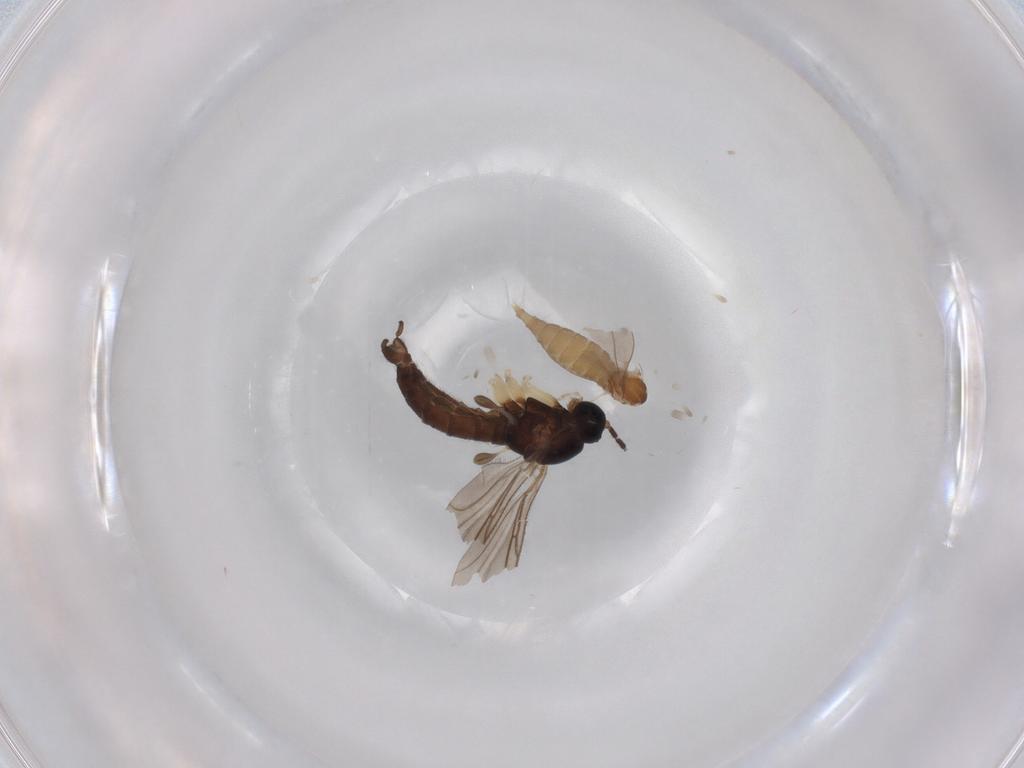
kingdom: Animalia
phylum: Arthropoda
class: Insecta
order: Diptera
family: Sciaridae
